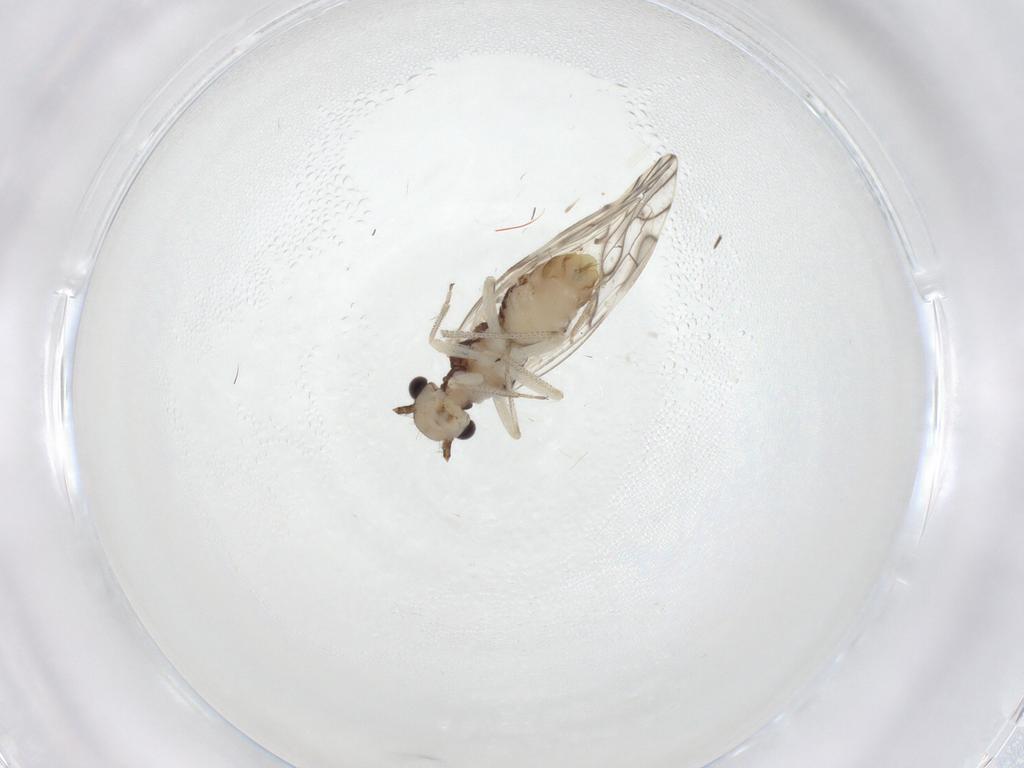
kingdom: Animalia
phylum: Arthropoda
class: Insecta
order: Psocodea
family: Caeciliusidae
